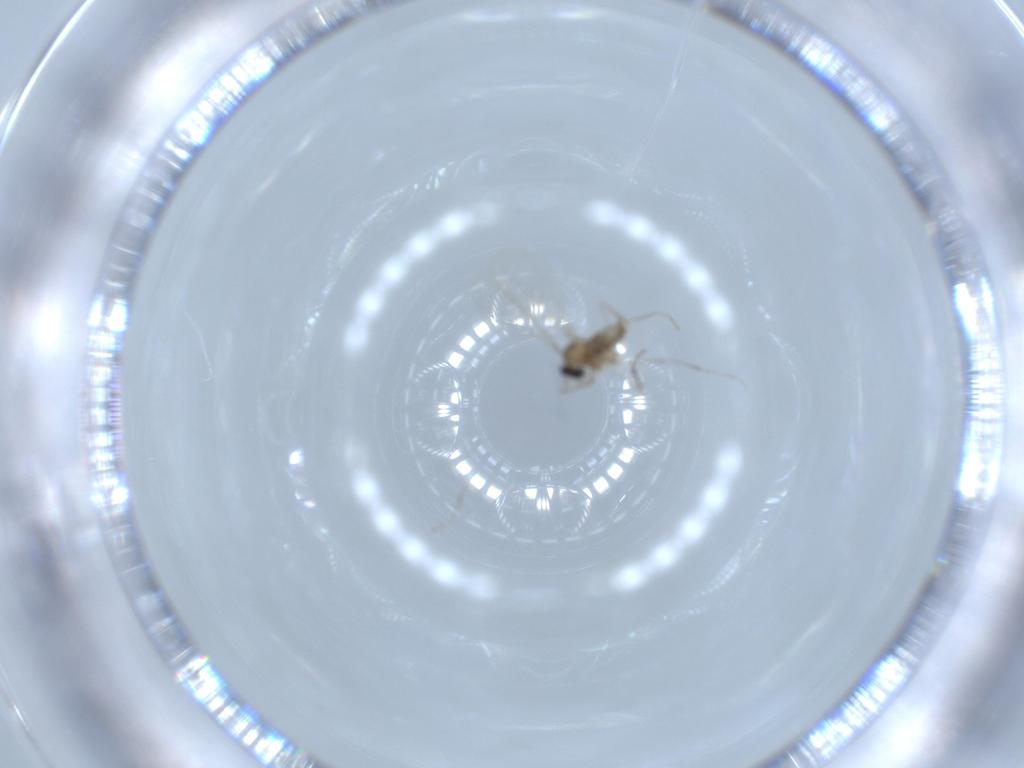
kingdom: Animalia
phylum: Arthropoda
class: Insecta
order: Diptera
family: Cecidomyiidae
